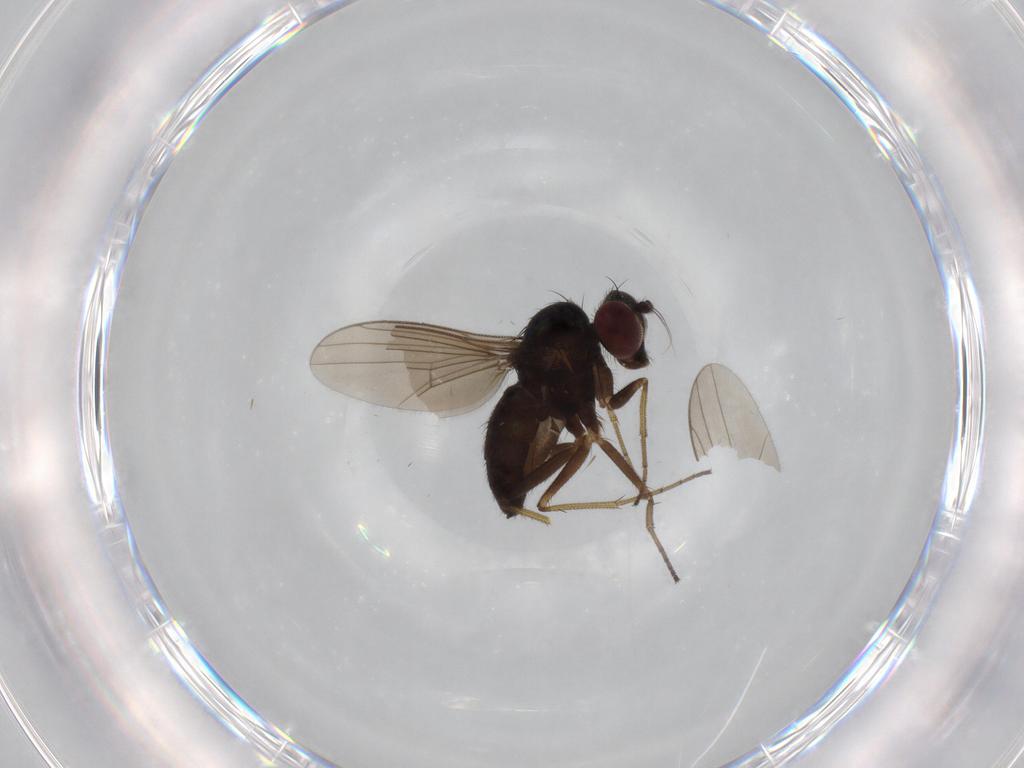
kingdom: Animalia
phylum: Arthropoda
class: Insecta
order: Diptera
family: Dolichopodidae
